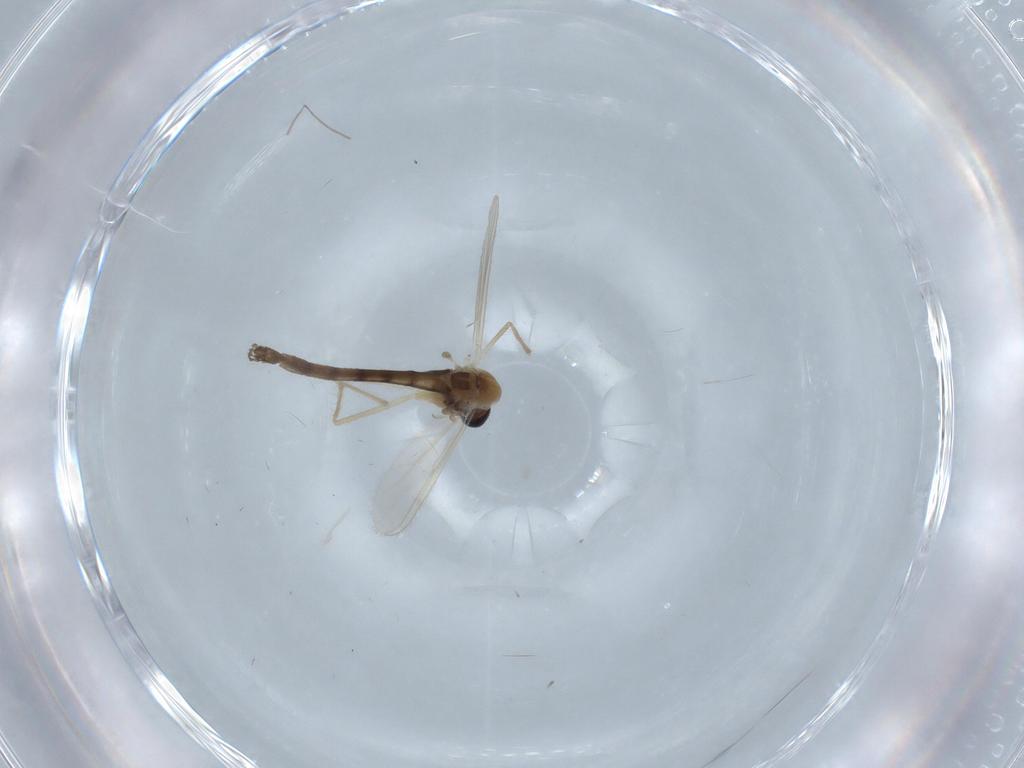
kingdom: Animalia
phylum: Arthropoda
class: Insecta
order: Diptera
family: Chironomidae
